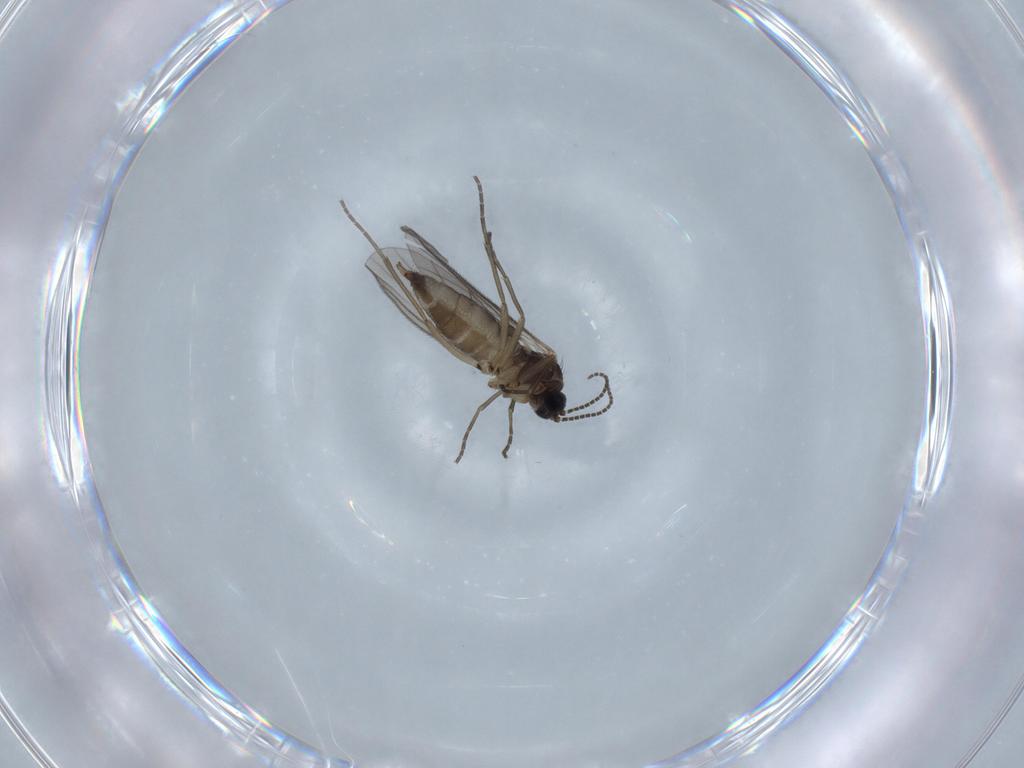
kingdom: Animalia
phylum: Arthropoda
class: Insecta
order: Diptera
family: Sciaridae
